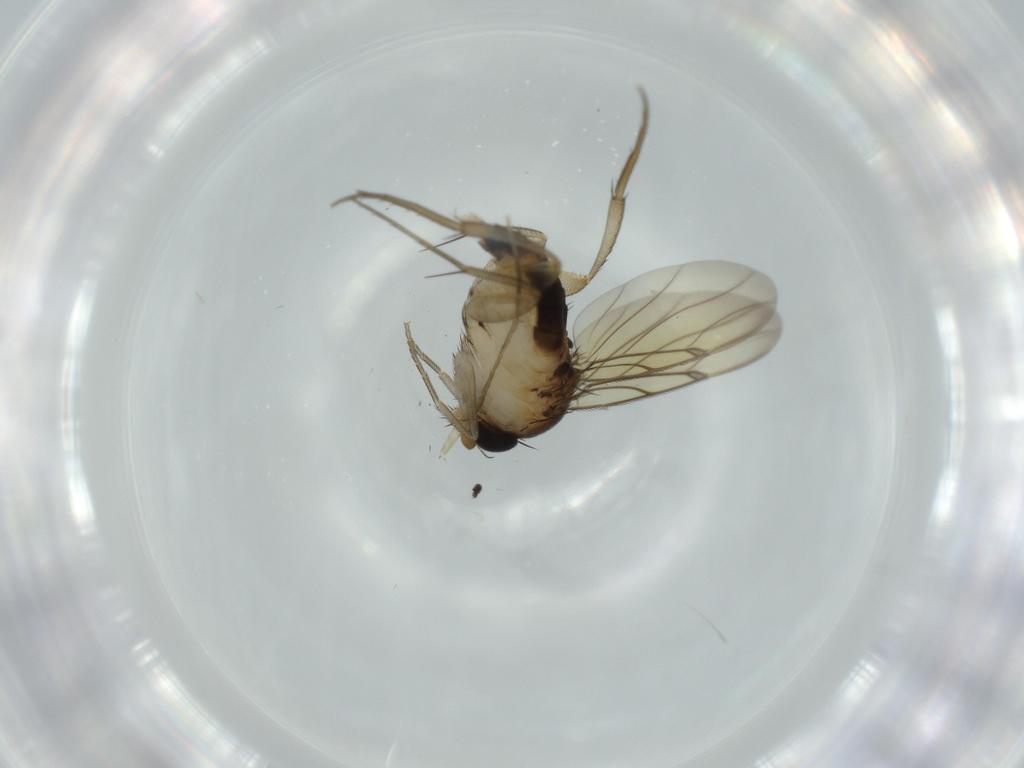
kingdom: Animalia
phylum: Arthropoda
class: Insecta
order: Diptera
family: Psychodidae
